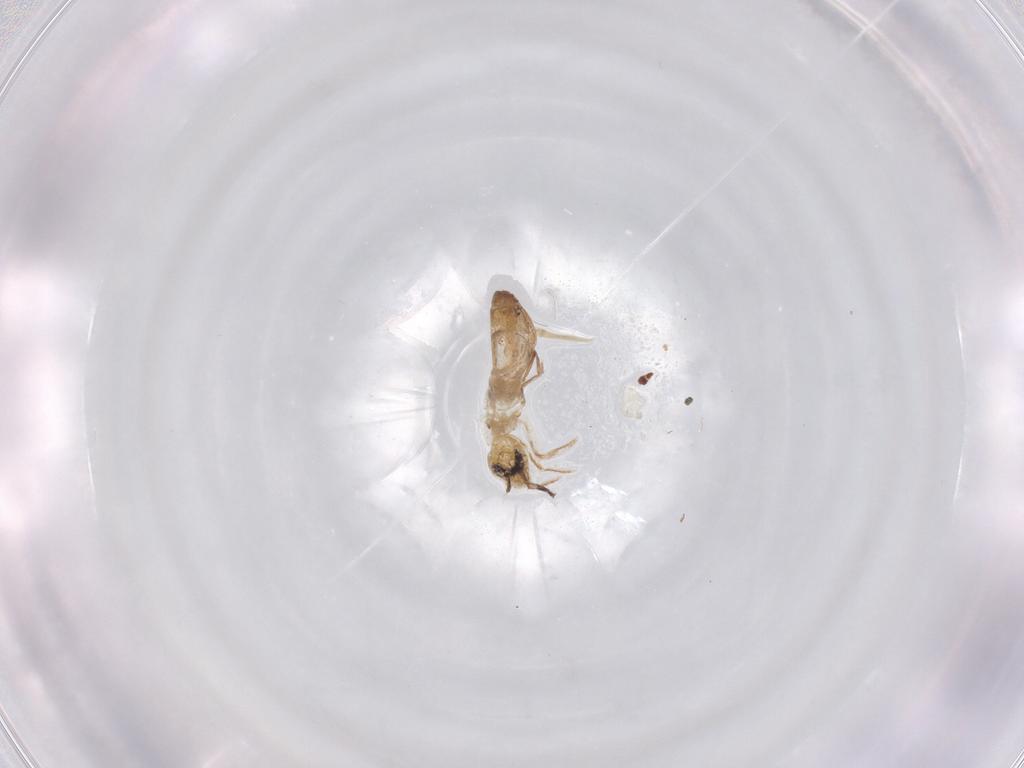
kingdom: Animalia
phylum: Arthropoda
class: Collembola
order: Entomobryomorpha
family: Entomobryidae
